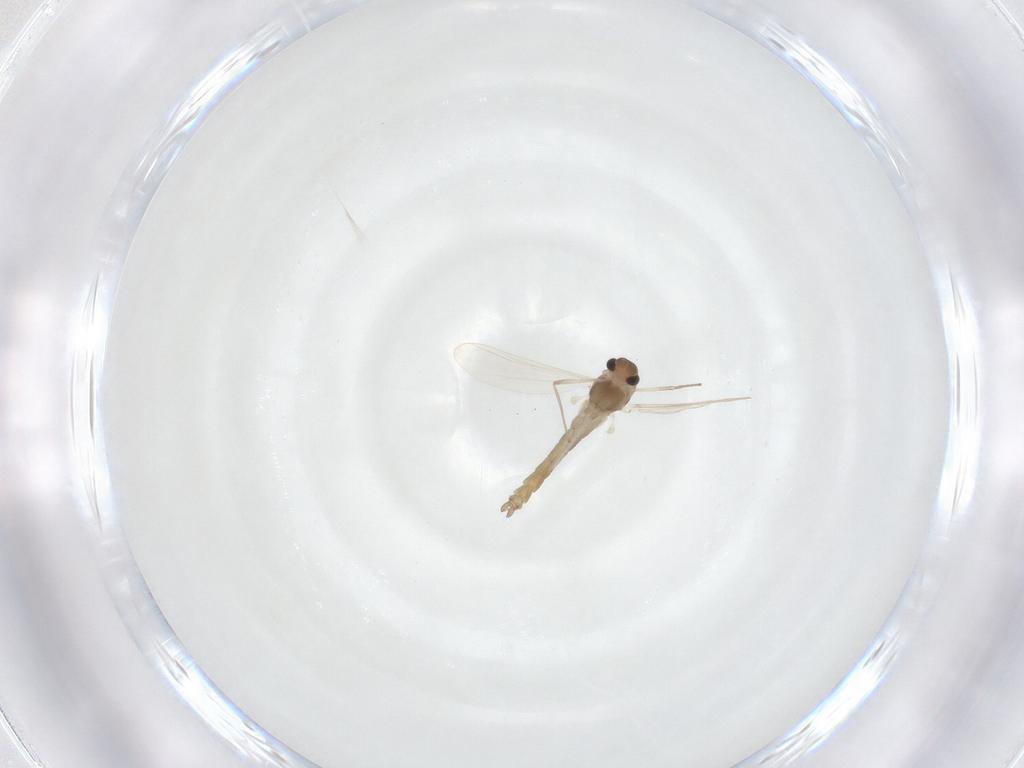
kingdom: Animalia
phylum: Arthropoda
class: Insecta
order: Diptera
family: Chironomidae
